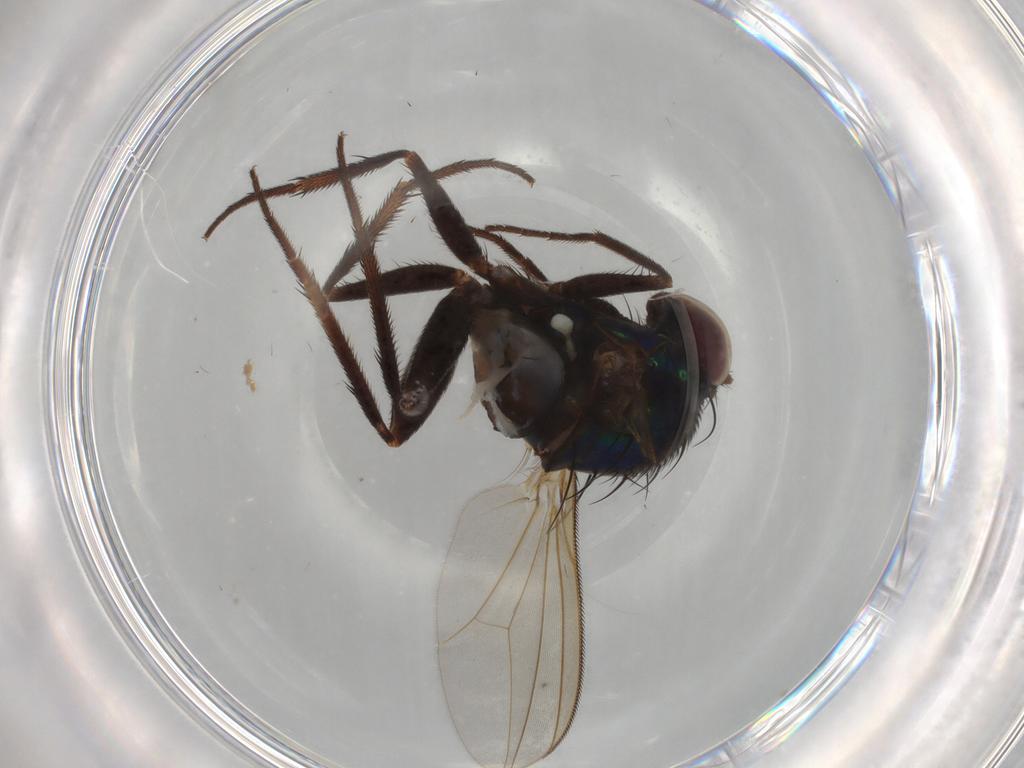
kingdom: Animalia
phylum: Arthropoda
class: Insecta
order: Diptera
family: Dolichopodidae
